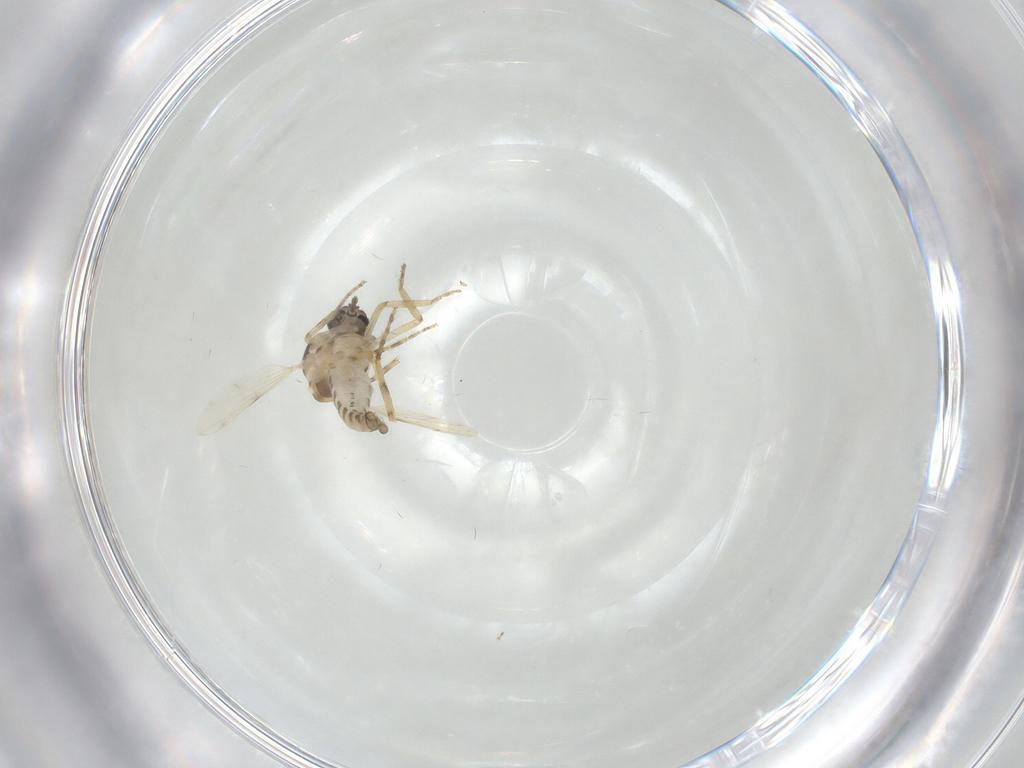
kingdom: Animalia
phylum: Arthropoda
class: Insecta
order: Diptera
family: Ceratopogonidae
